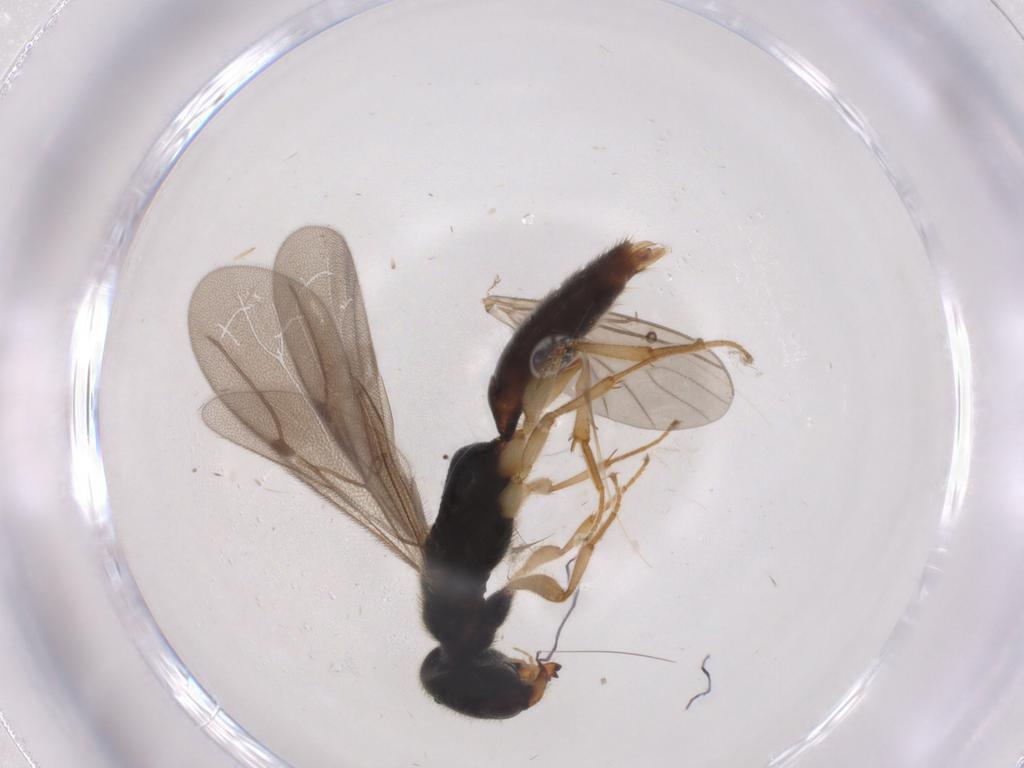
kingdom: Animalia
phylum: Arthropoda
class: Insecta
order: Hymenoptera
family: Bethylidae
